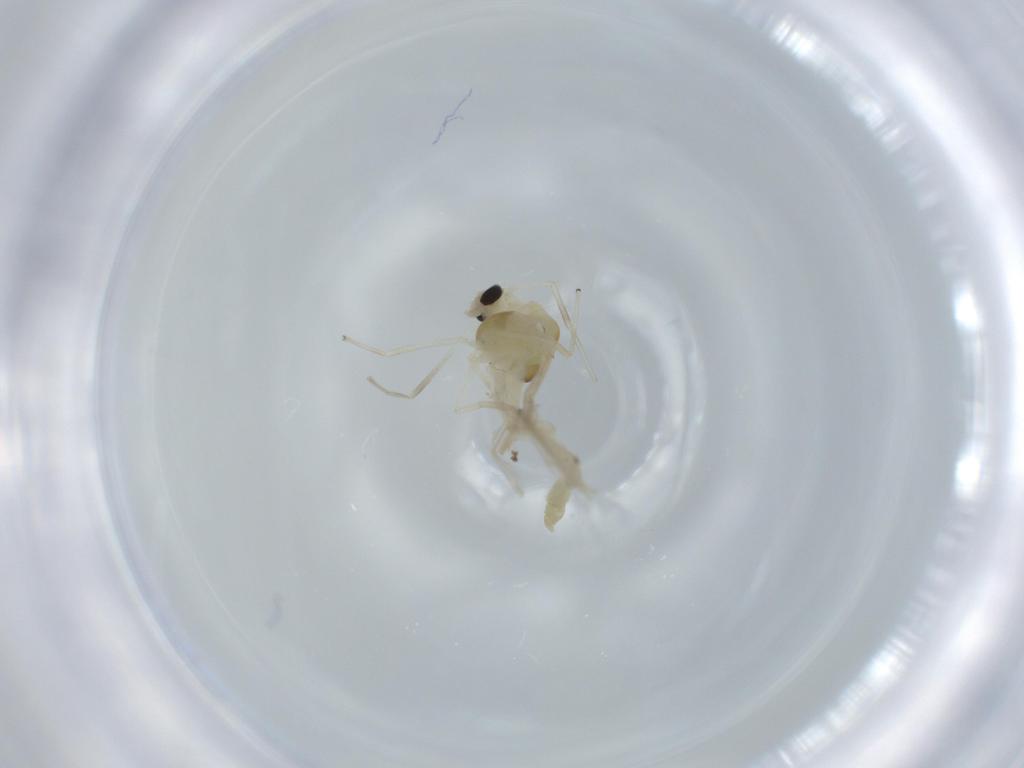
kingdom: Animalia
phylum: Arthropoda
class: Insecta
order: Diptera
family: Chironomidae
